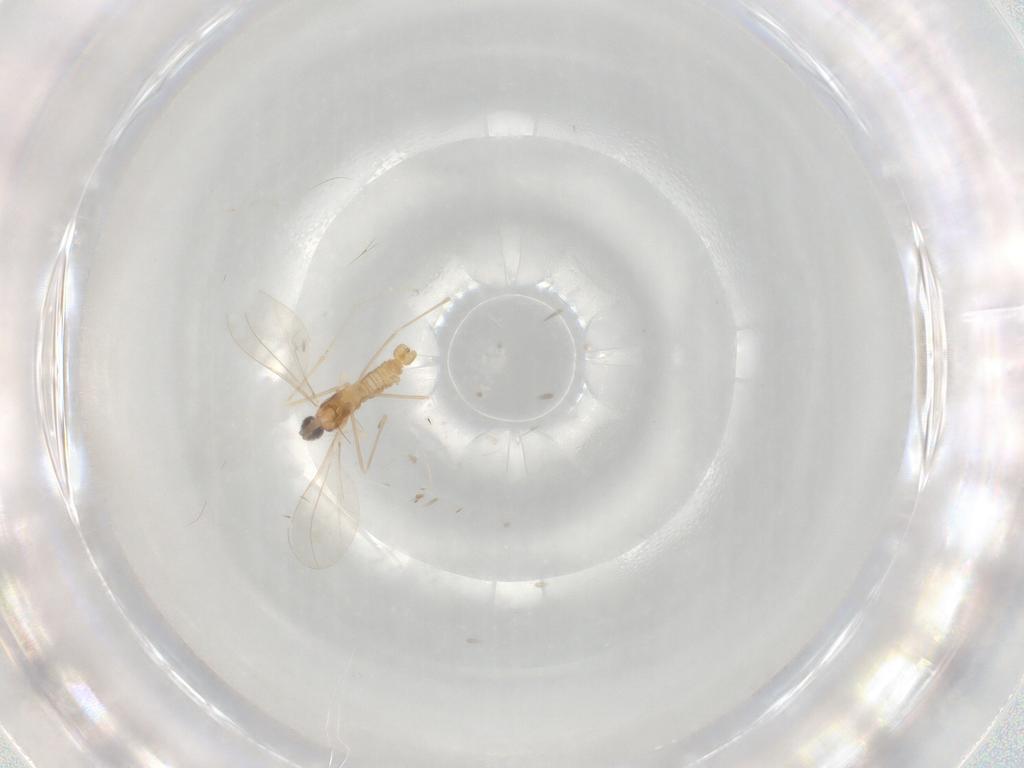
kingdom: Animalia
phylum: Arthropoda
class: Insecta
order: Diptera
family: Cecidomyiidae
